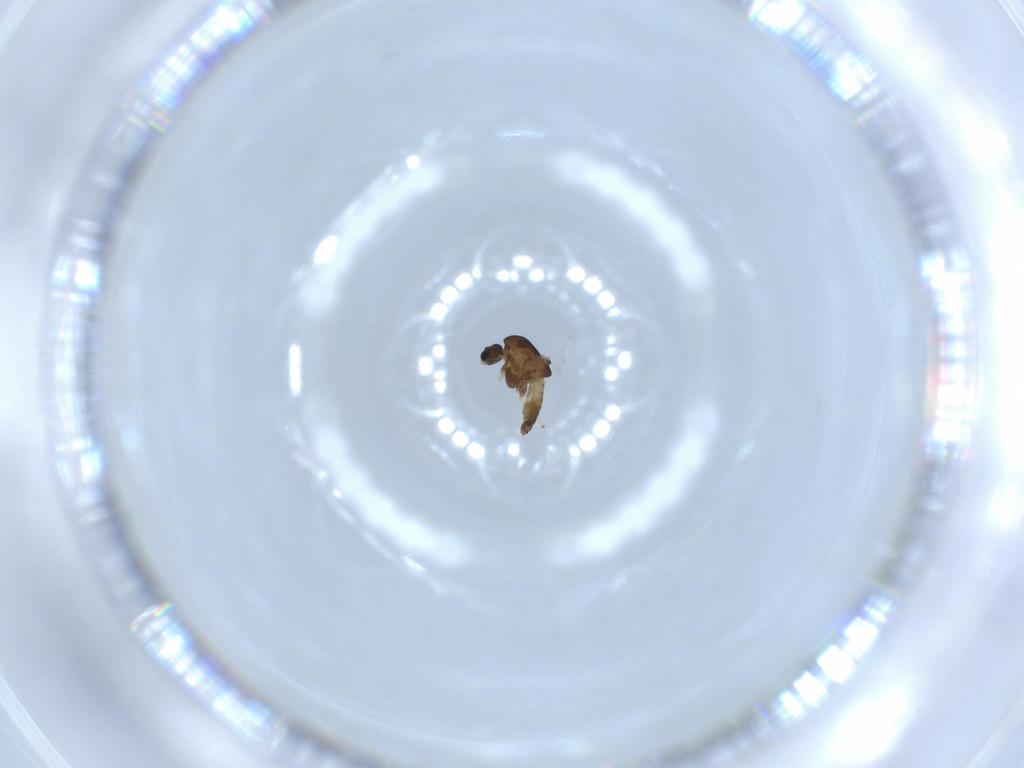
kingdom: Animalia
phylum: Arthropoda
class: Insecta
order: Diptera
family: Chironomidae
